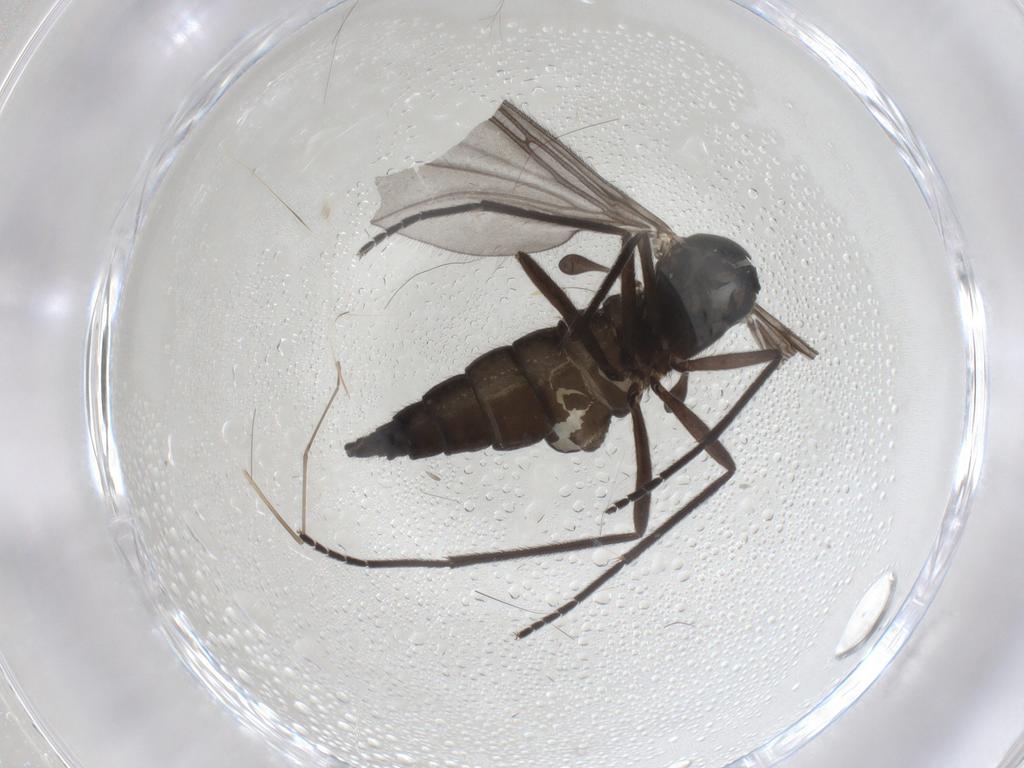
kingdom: Animalia
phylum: Arthropoda
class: Insecta
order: Diptera
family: Sciaridae
